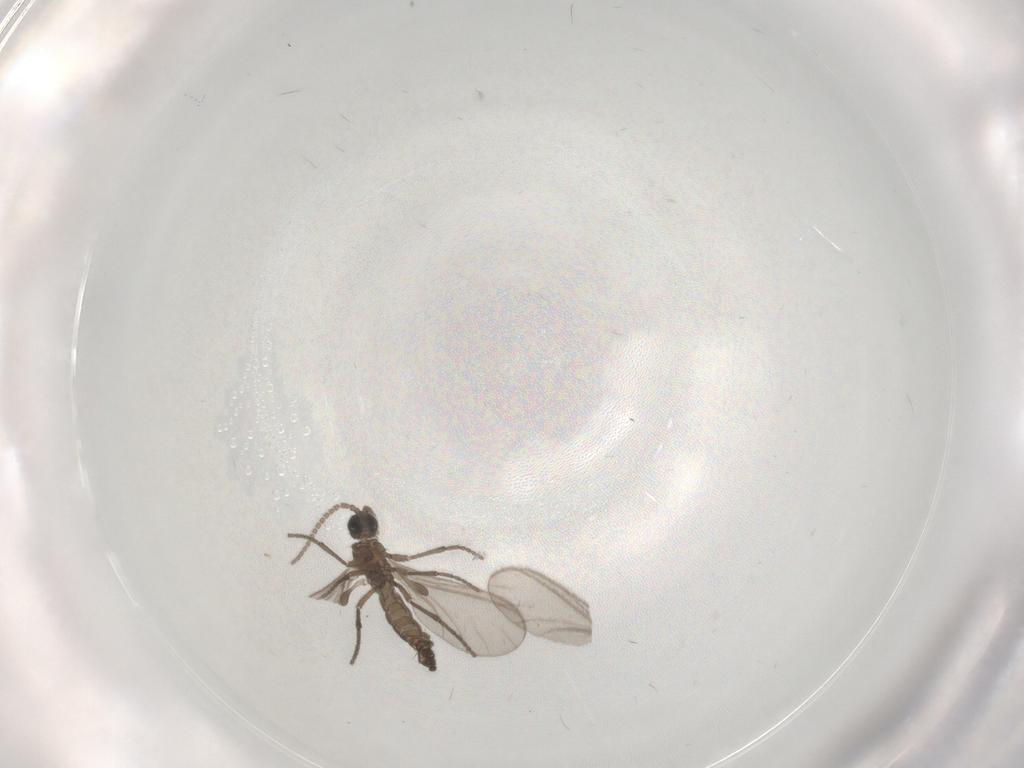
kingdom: Animalia
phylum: Arthropoda
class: Insecta
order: Diptera
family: Sciaridae
